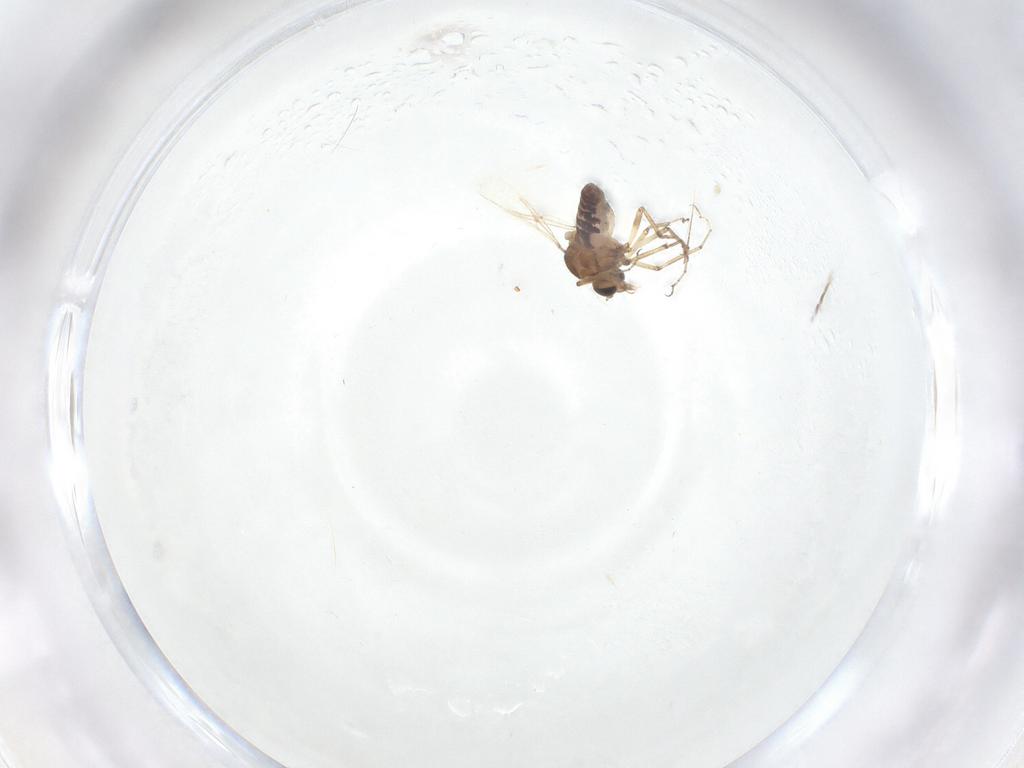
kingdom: Animalia
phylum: Arthropoda
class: Insecta
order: Diptera
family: Ceratopogonidae
